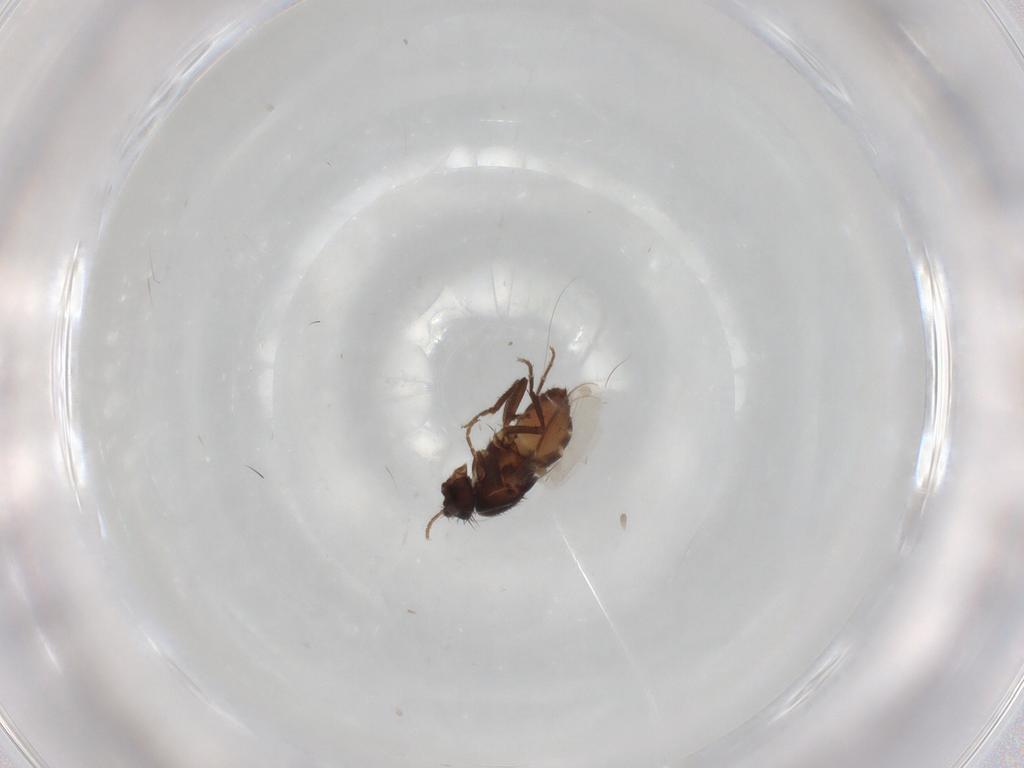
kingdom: Animalia
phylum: Arthropoda
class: Insecta
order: Diptera
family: Sphaeroceridae
